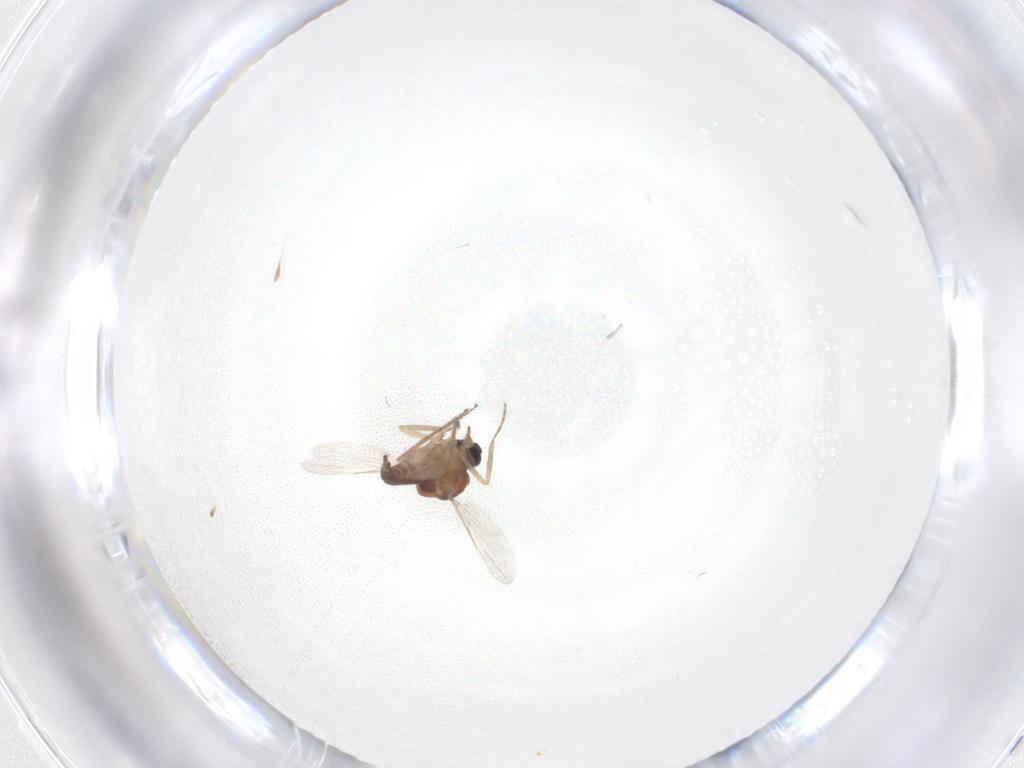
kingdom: Animalia
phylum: Arthropoda
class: Insecta
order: Diptera
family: Ceratopogonidae
